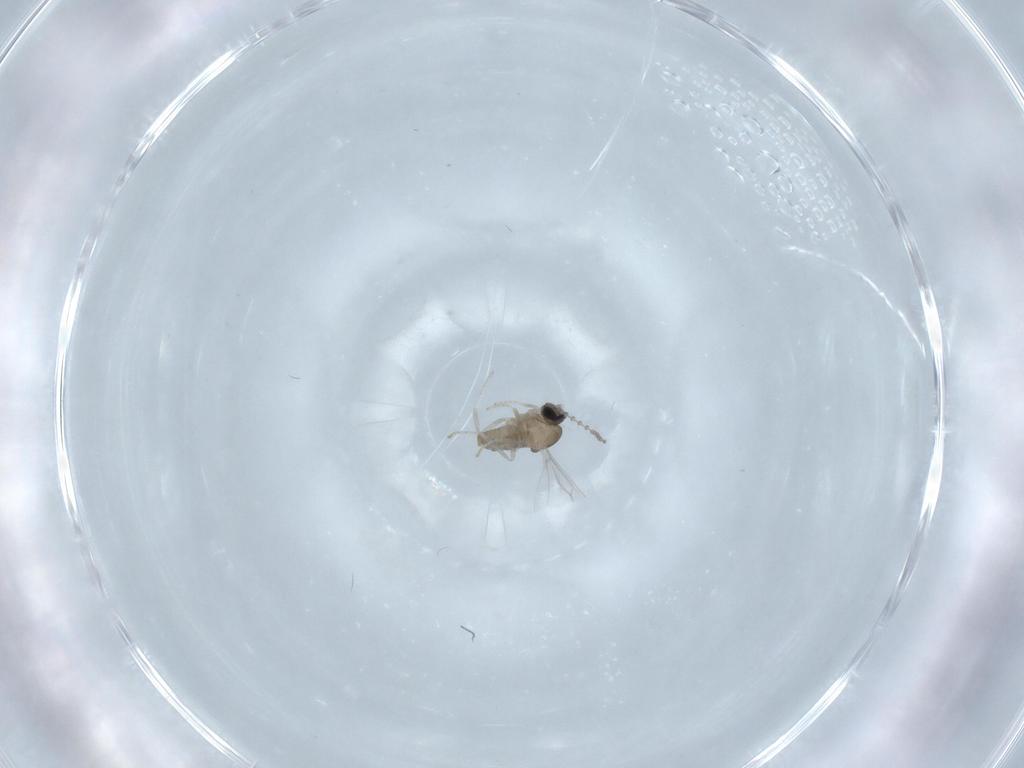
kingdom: Animalia
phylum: Arthropoda
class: Insecta
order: Diptera
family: Cecidomyiidae
